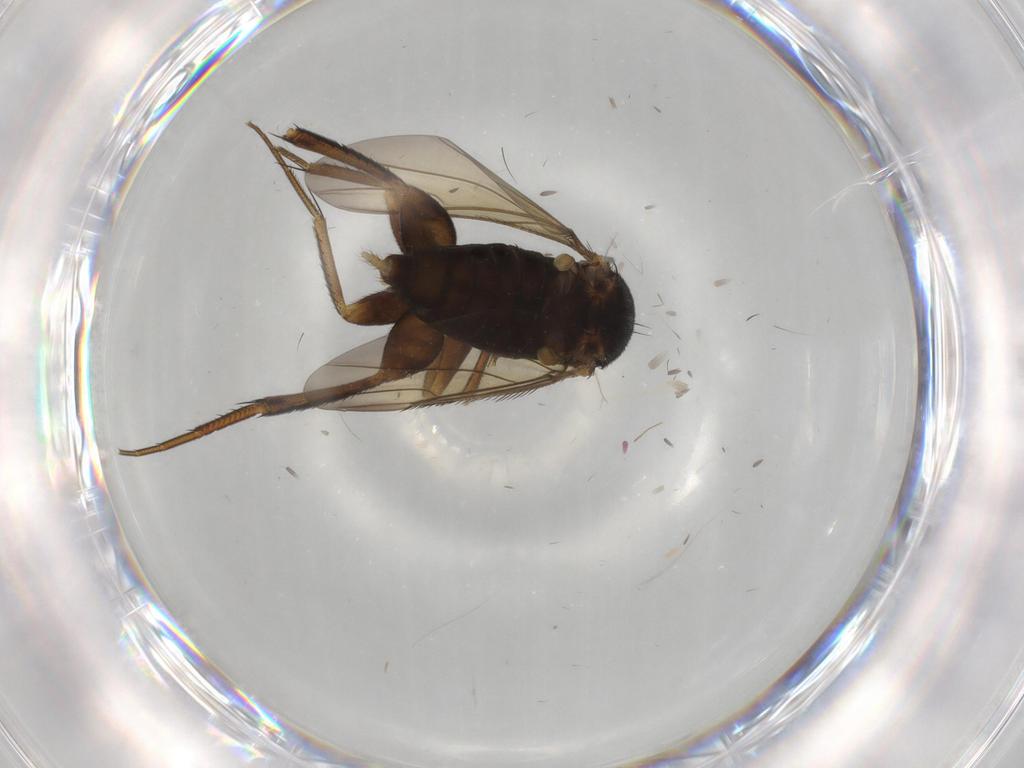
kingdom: Animalia
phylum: Arthropoda
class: Insecta
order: Diptera
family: Phoridae
